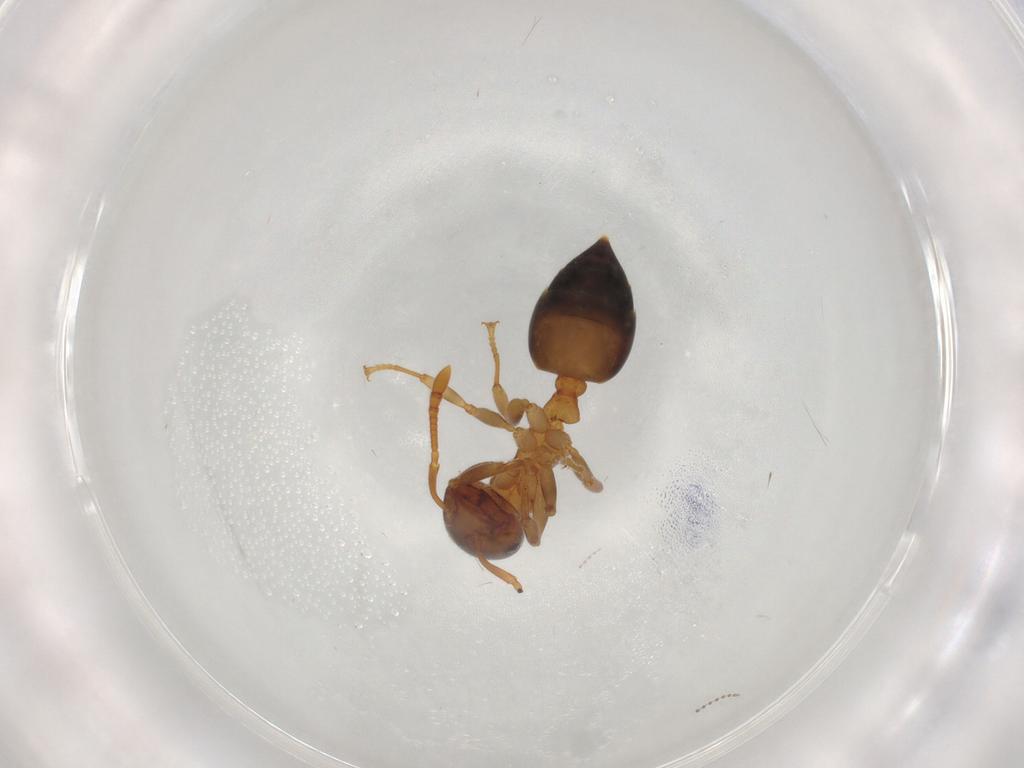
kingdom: Animalia
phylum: Arthropoda
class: Insecta
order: Hymenoptera
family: Formicidae
